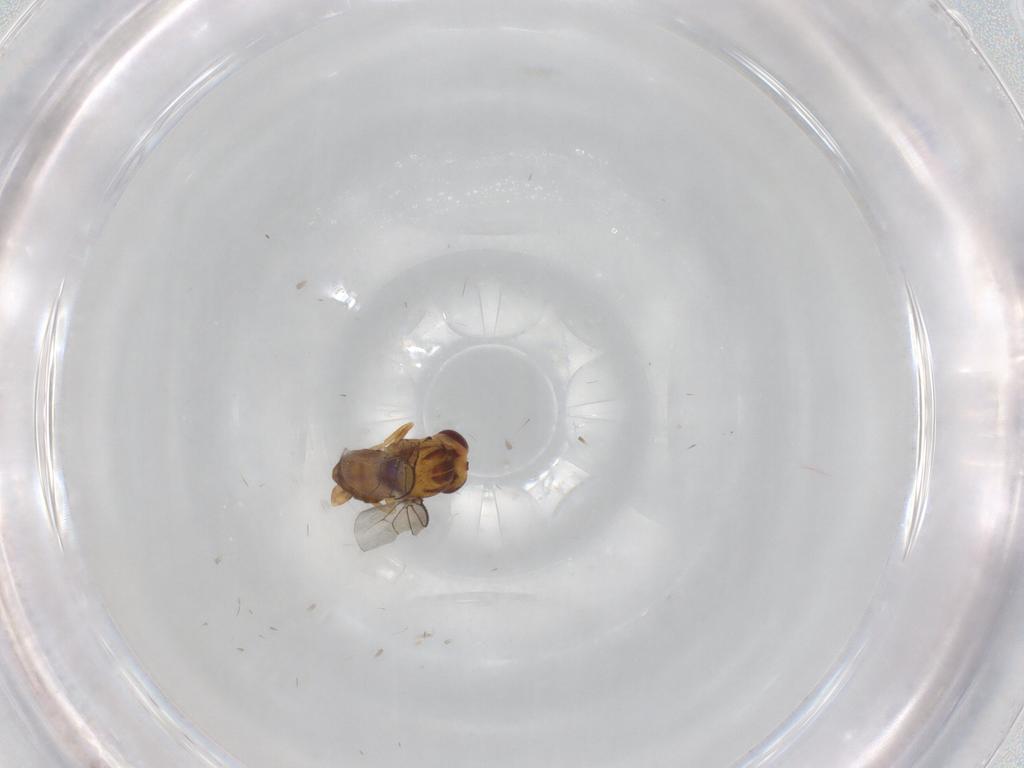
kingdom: Animalia
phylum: Arthropoda
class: Insecta
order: Diptera
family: Chloropidae
